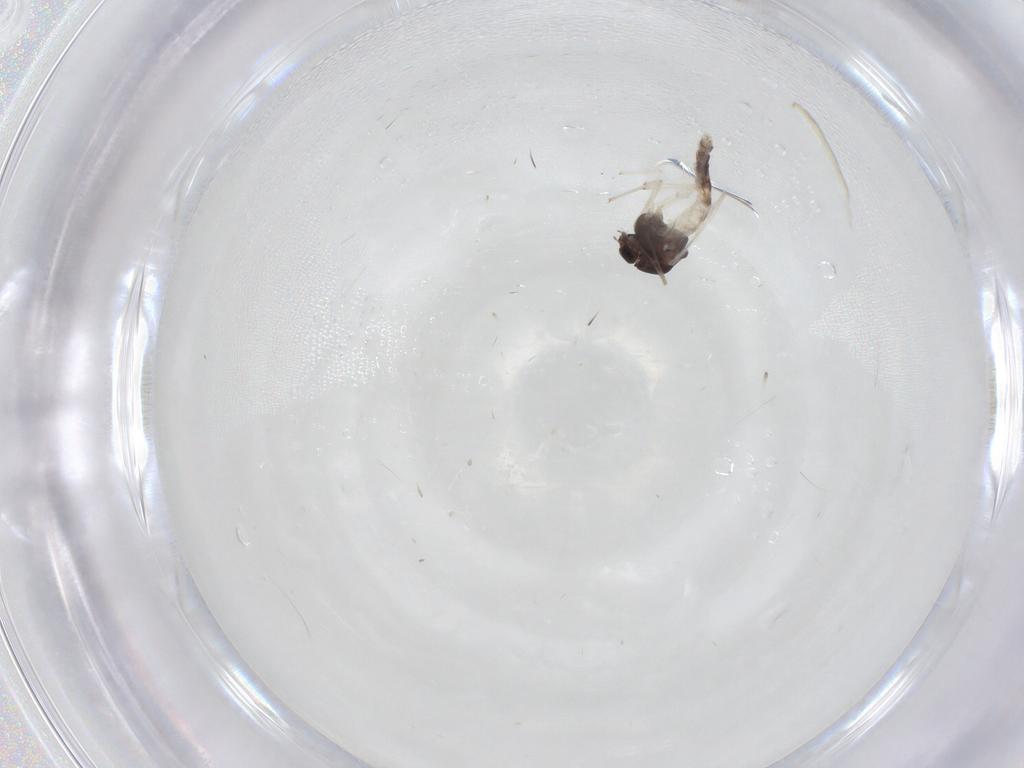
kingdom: Animalia
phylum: Arthropoda
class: Insecta
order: Diptera
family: Chironomidae
